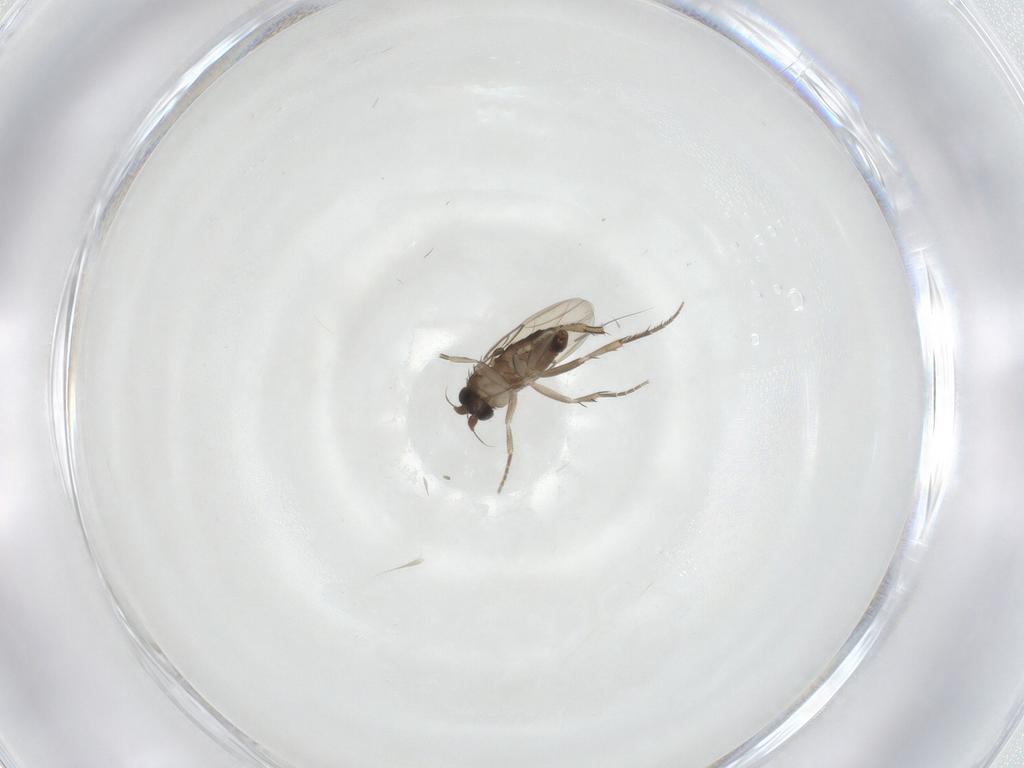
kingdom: Animalia
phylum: Arthropoda
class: Insecta
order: Diptera
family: Phoridae
